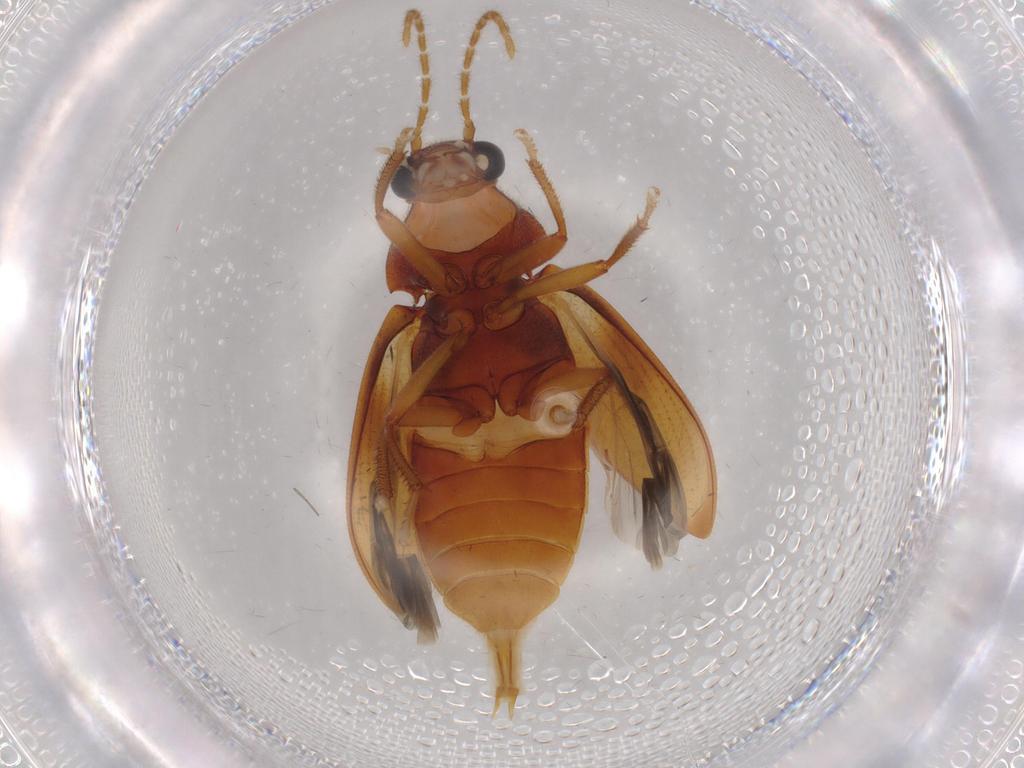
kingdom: Animalia
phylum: Arthropoda
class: Insecta
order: Coleoptera
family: Ptilodactylidae
